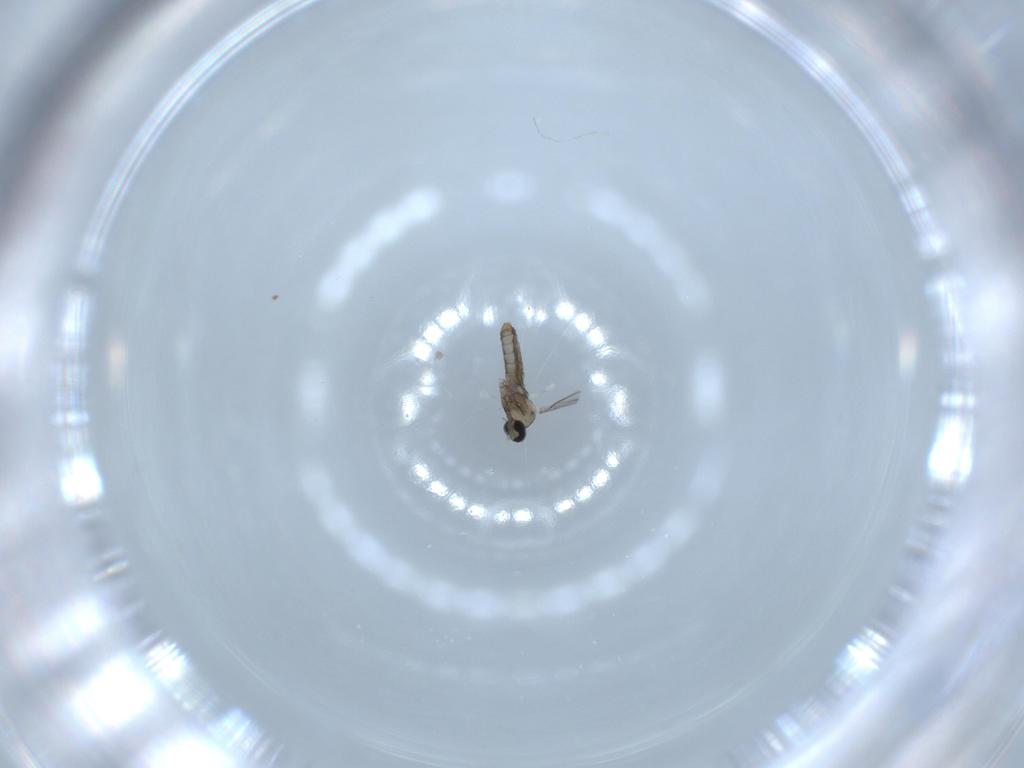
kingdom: Animalia
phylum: Arthropoda
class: Insecta
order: Diptera
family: Cecidomyiidae
